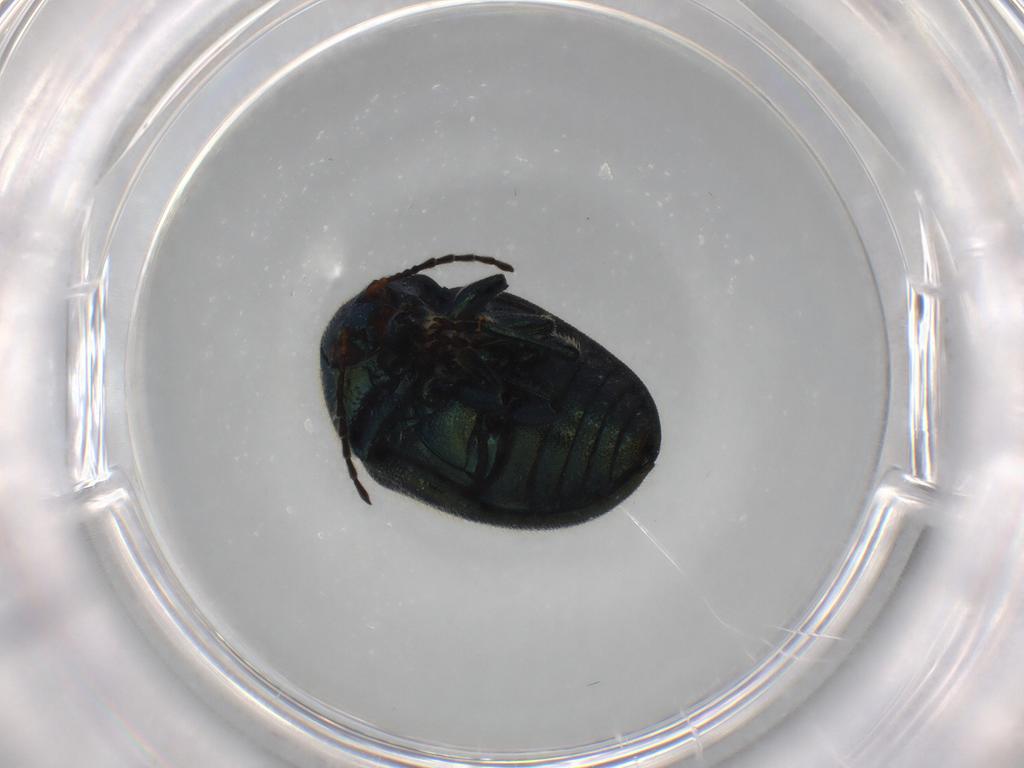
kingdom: Animalia
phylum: Arthropoda
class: Insecta
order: Coleoptera
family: Chrysomelidae
